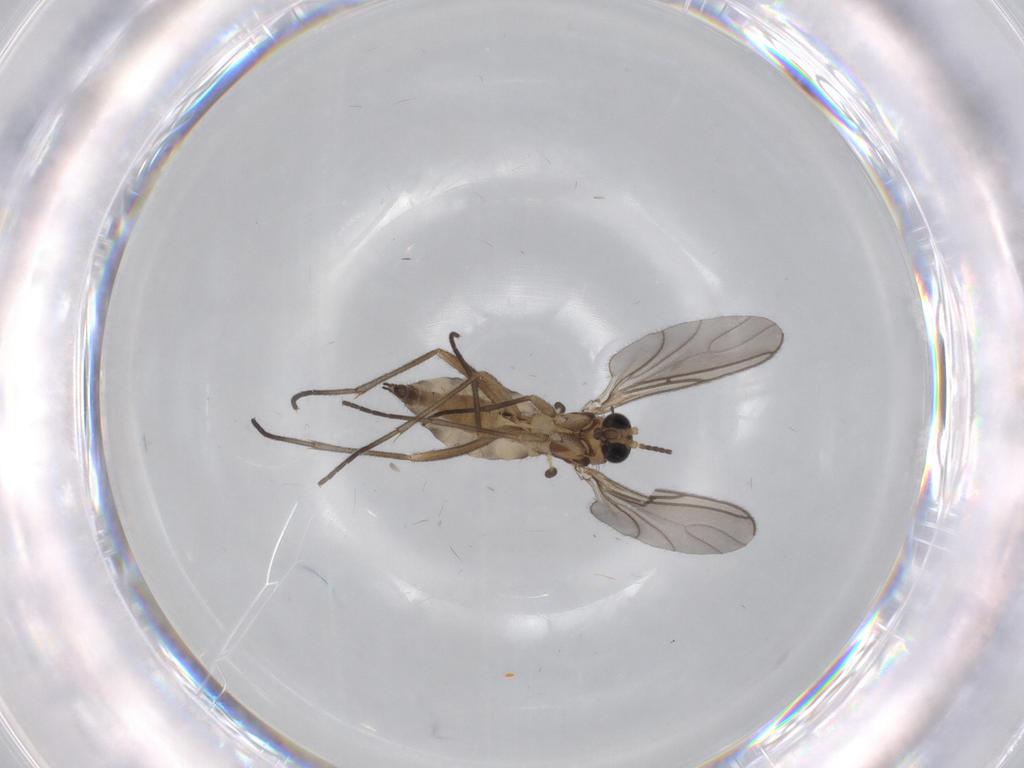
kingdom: Animalia
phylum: Arthropoda
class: Insecta
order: Diptera
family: Sciaridae
